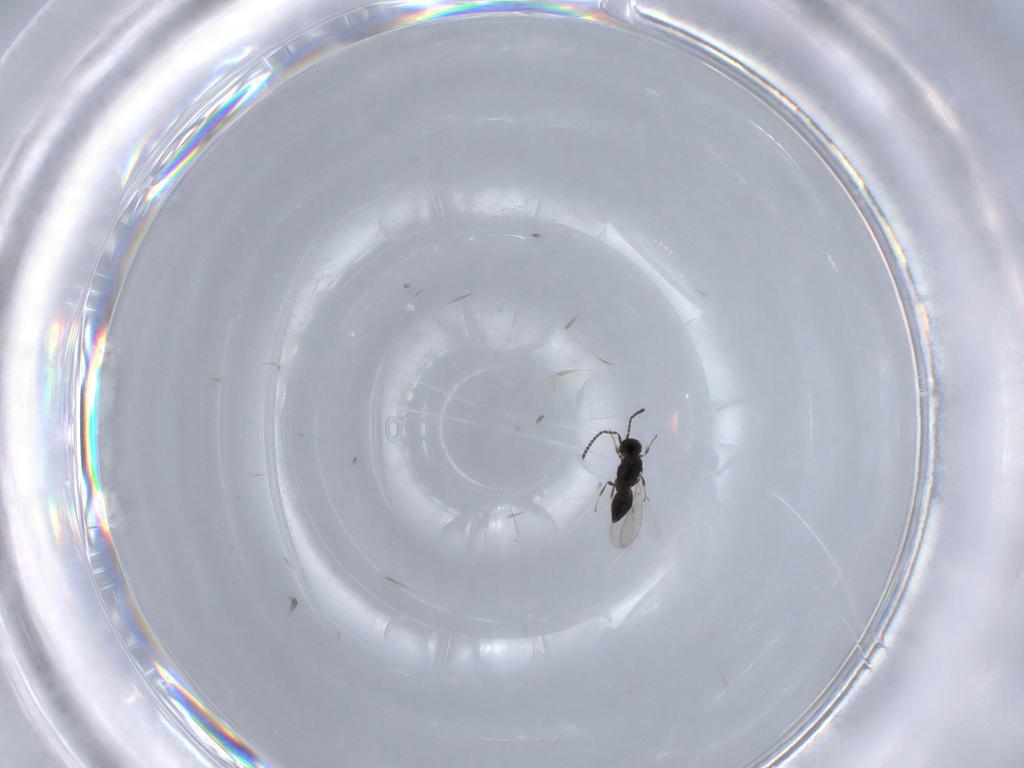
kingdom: Animalia
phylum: Arthropoda
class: Insecta
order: Hymenoptera
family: Scelionidae
